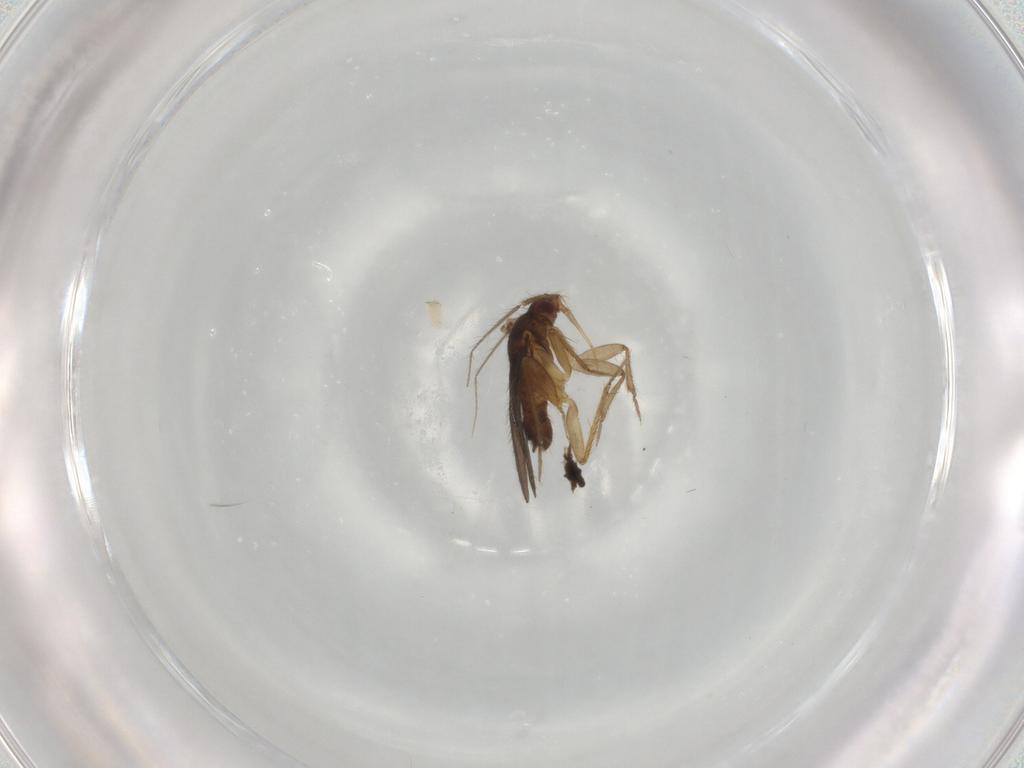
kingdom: Animalia
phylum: Arthropoda
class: Insecta
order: Diptera
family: Chironomidae
